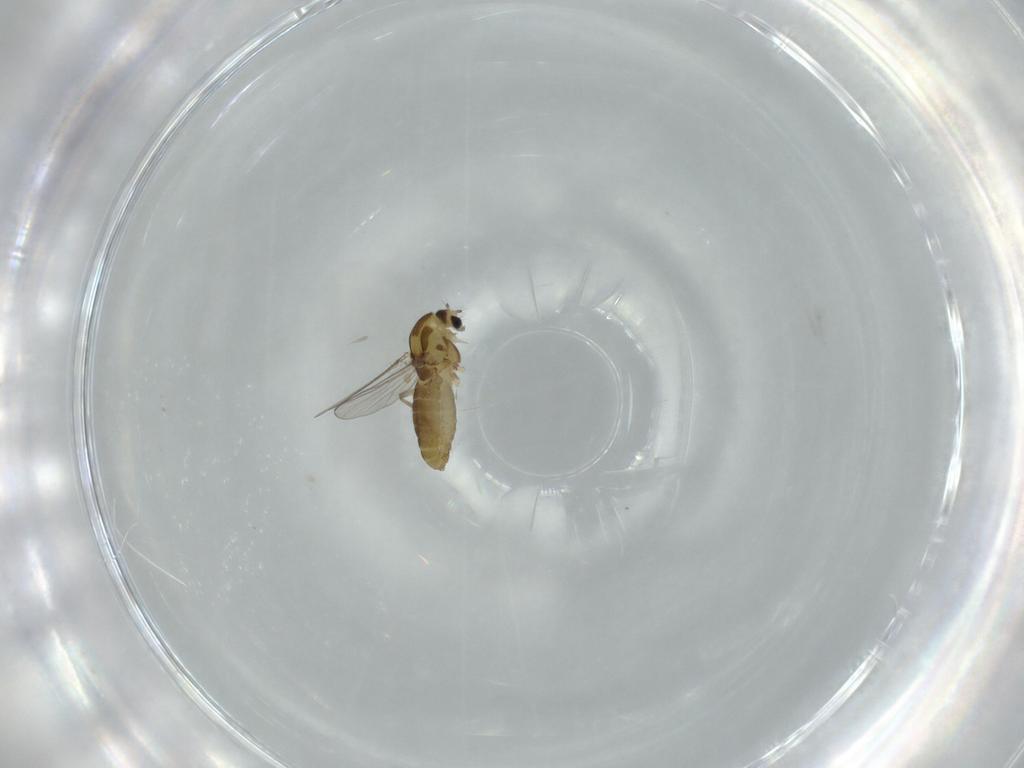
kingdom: Animalia
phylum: Arthropoda
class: Insecta
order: Diptera
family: Chironomidae
